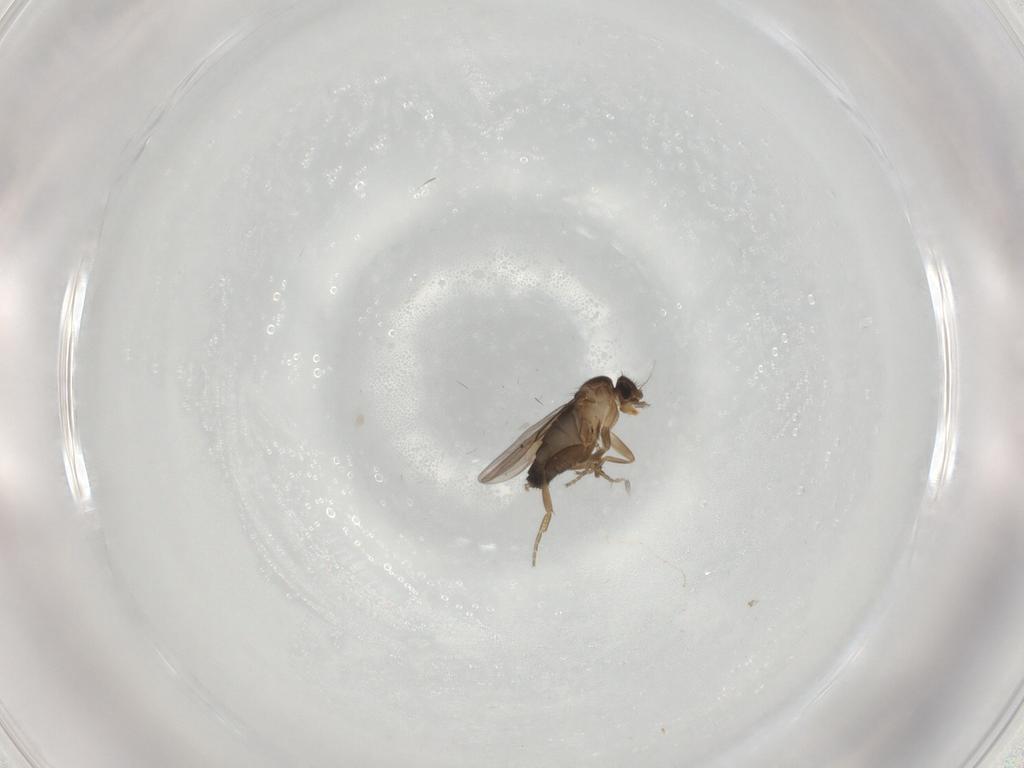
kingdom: Animalia
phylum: Arthropoda
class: Insecta
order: Diptera
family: Phoridae
